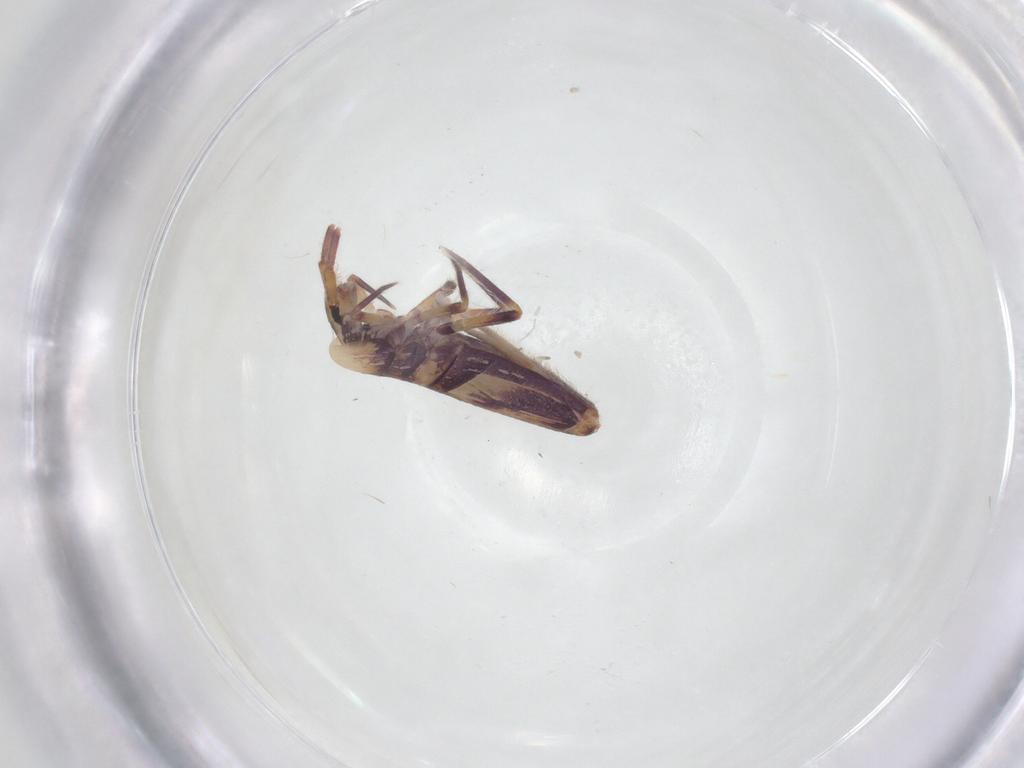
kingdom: Animalia
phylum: Arthropoda
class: Collembola
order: Entomobryomorpha
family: Entomobryidae
